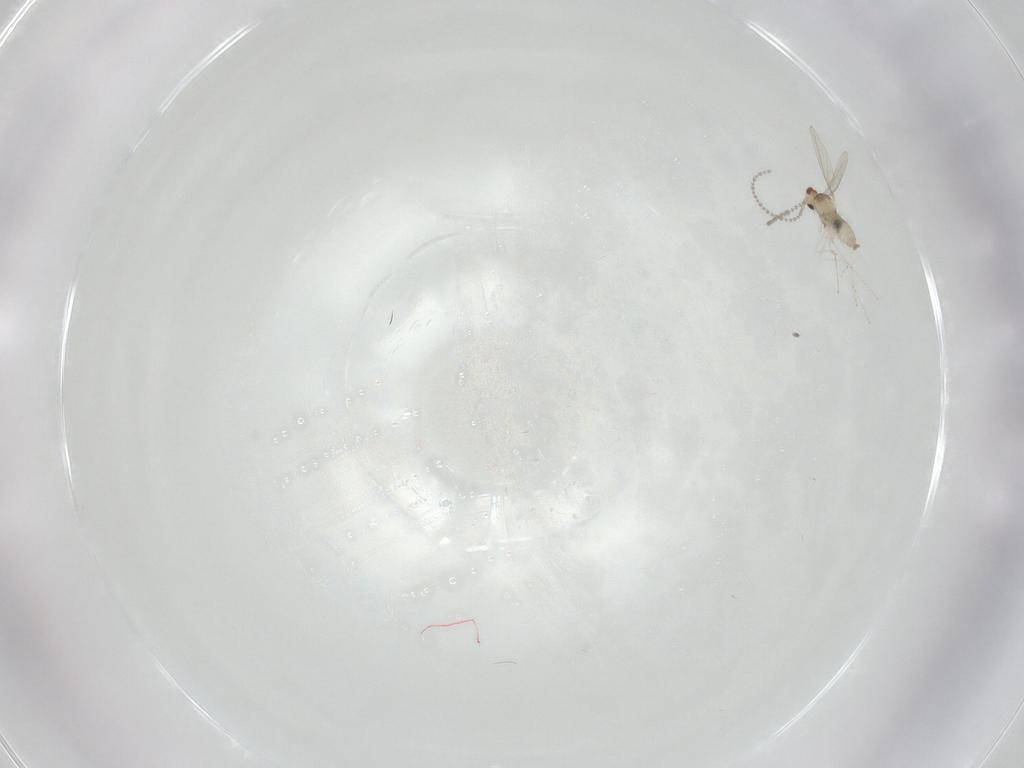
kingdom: Animalia
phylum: Arthropoda
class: Insecta
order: Diptera
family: Cecidomyiidae
